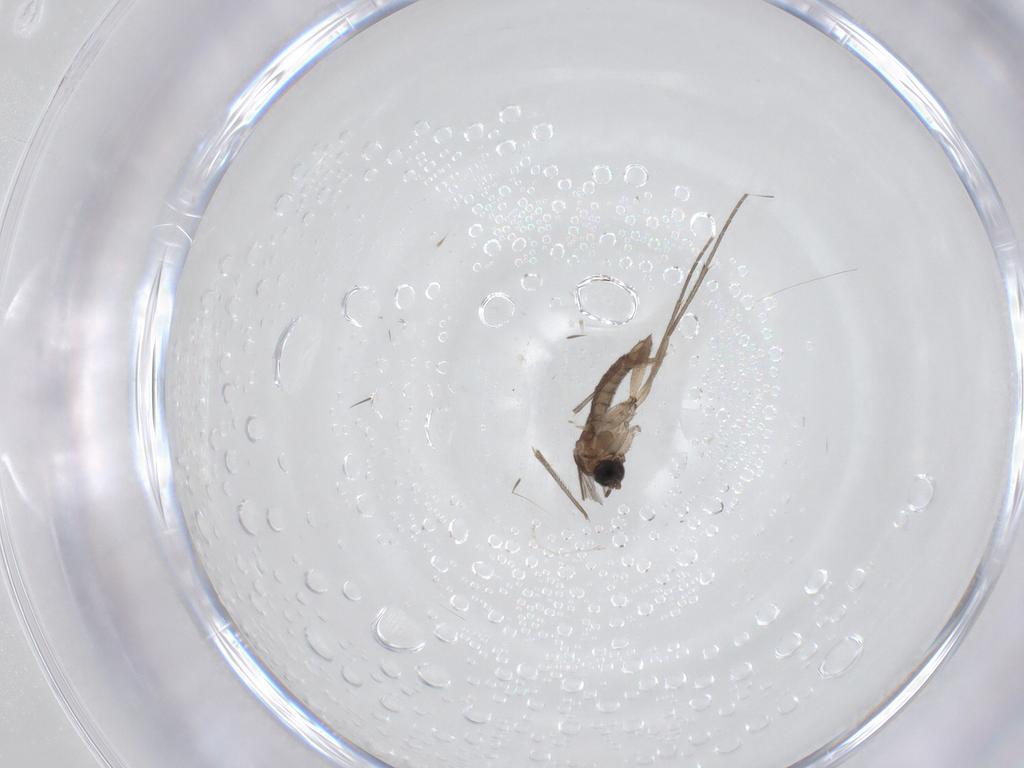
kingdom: Animalia
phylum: Arthropoda
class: Insecta
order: Diptera
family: Sciaridae
